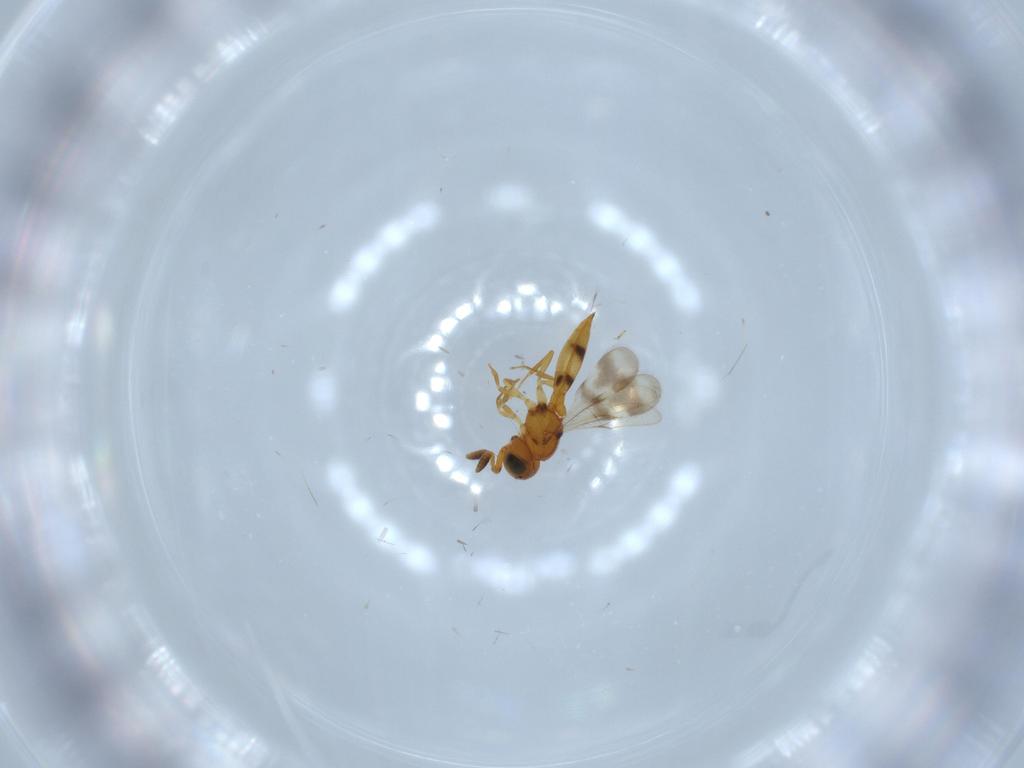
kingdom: Animalia
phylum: Arthropoda
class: Insecta
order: Hymenoptera
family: Scelionidae
